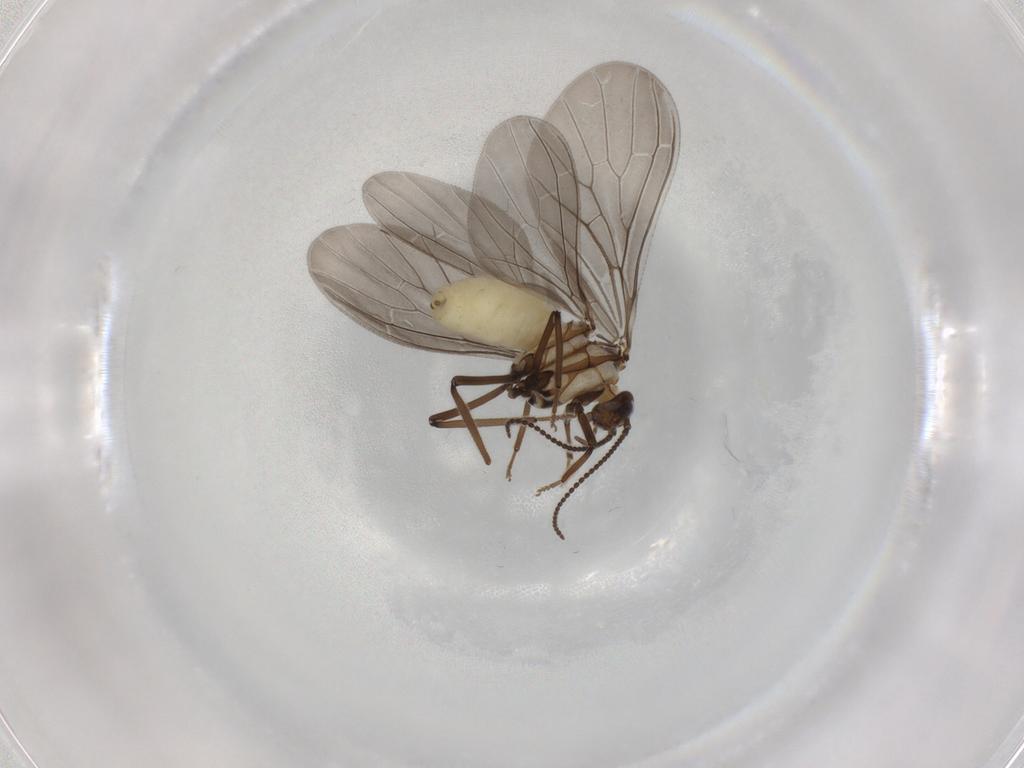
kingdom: Animalia
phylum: Arthropoda
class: Insecta
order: Neuroptera
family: Coniopterygidae
